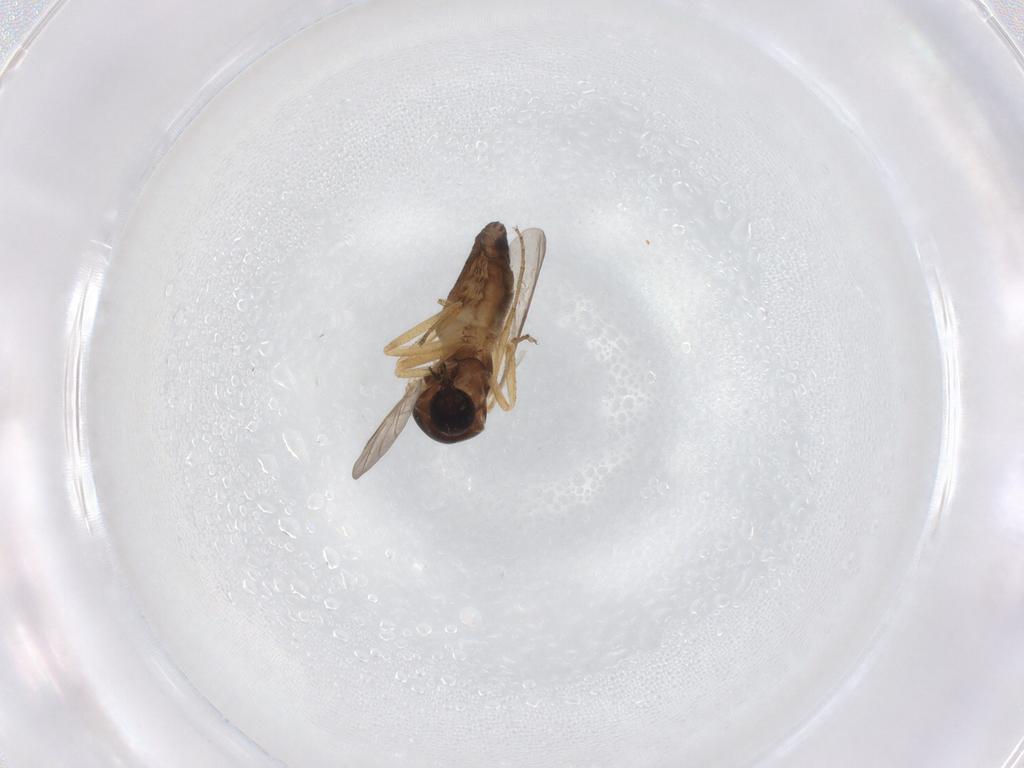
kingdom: Animalia
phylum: Arthropoda
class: Insecta
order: Diptera
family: Ceratopogonidae
